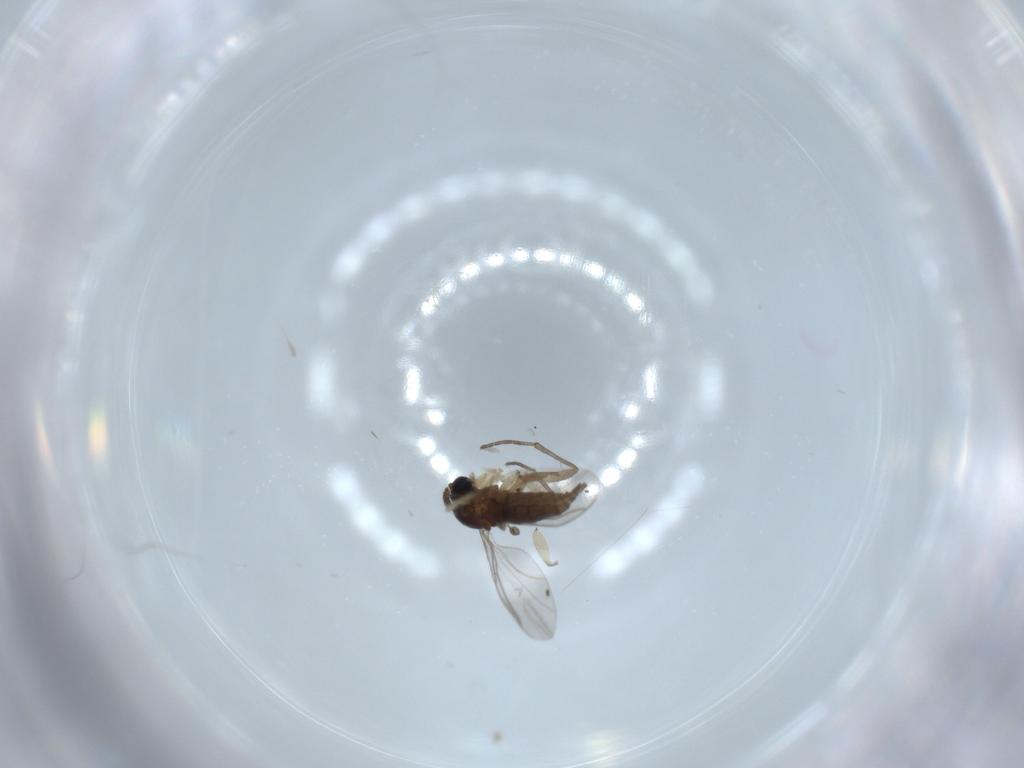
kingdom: Animalia
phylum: Arthropoda
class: Insecta
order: Diptera
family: Sciaridae
